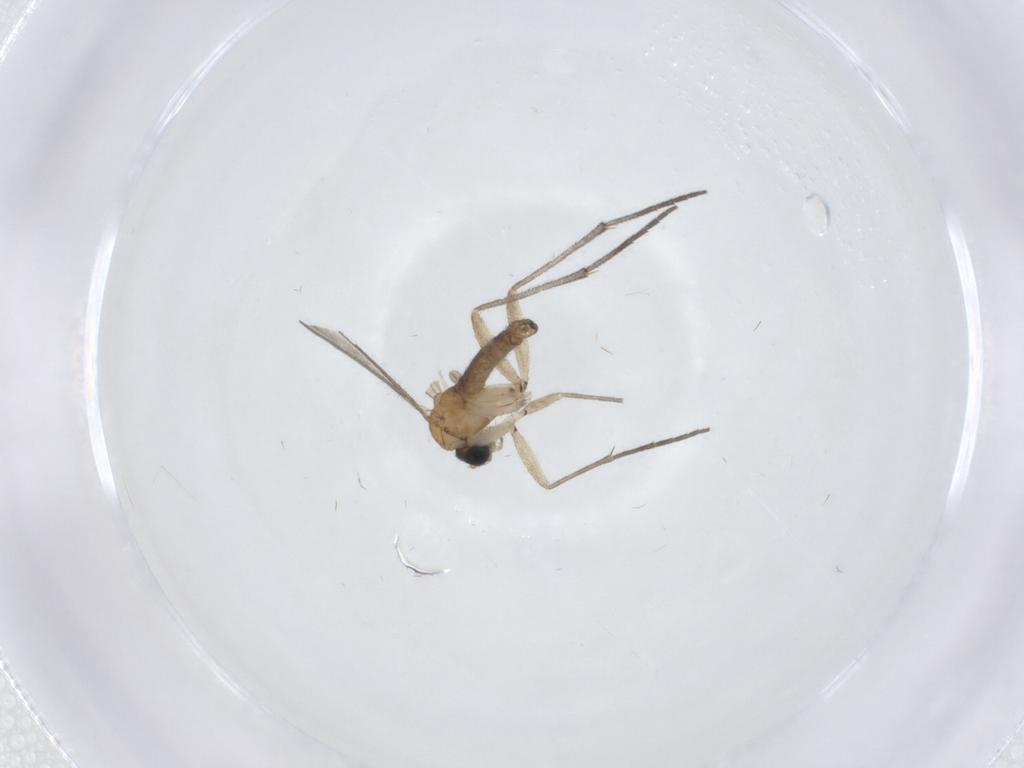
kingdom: Animalia
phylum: Arthropoda
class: Insecta
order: Diptera
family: Sciaridae
